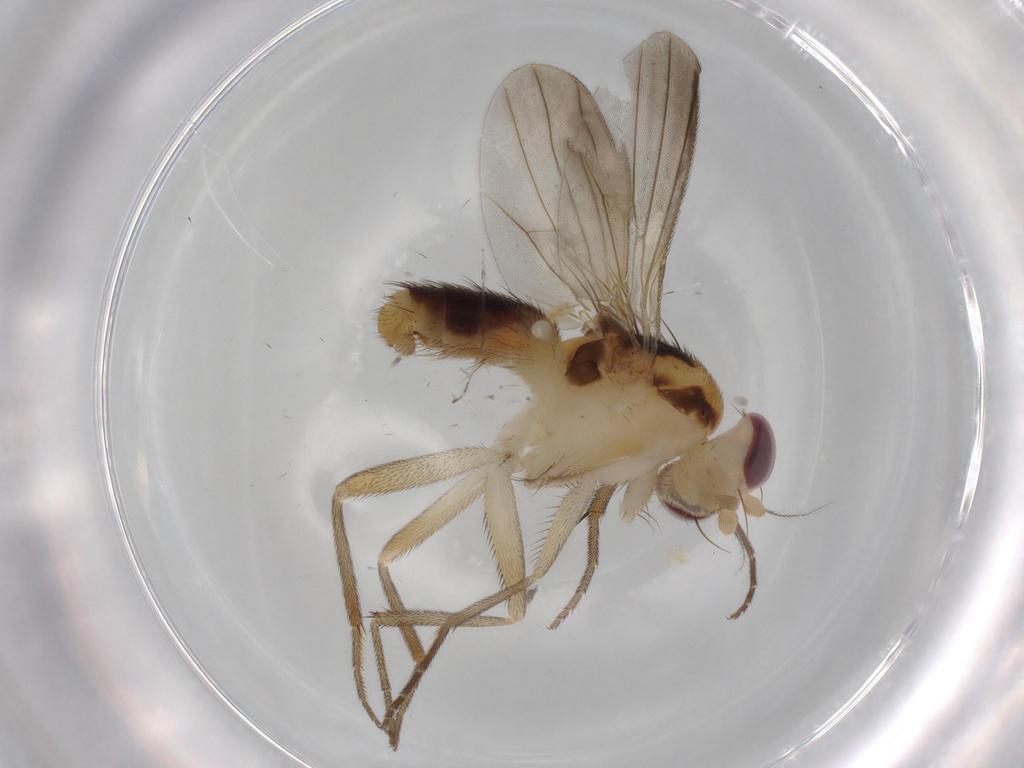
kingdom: Animalia
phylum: Arthropoda
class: Insecta
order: Diptera
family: Clusiidae
